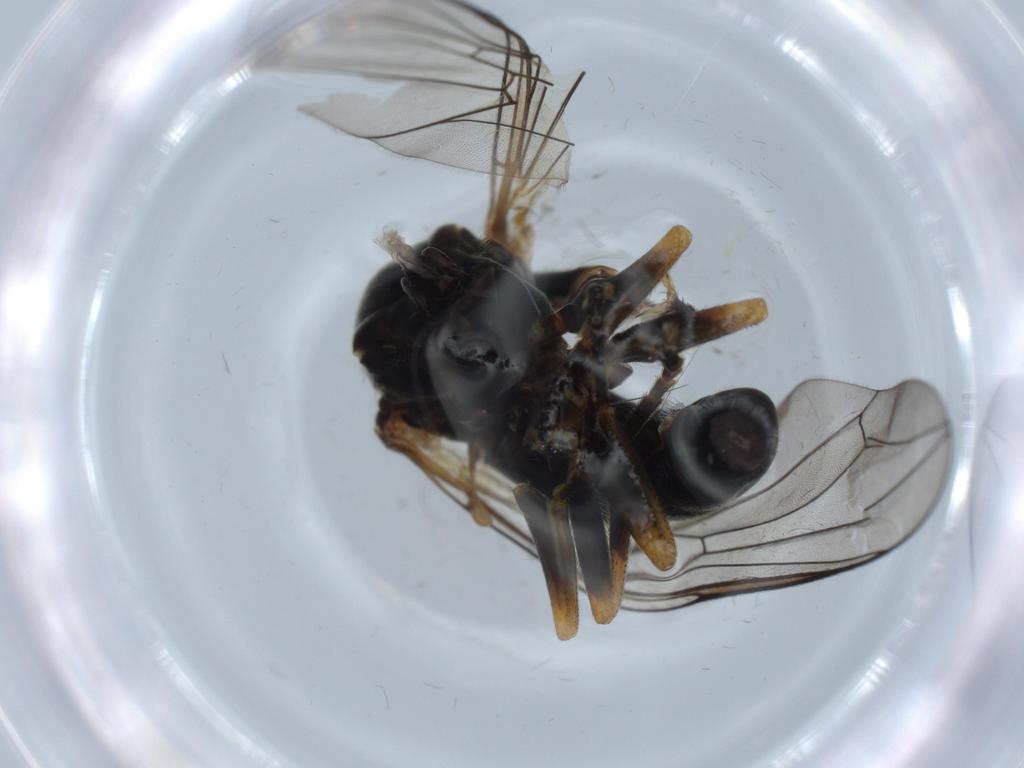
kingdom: Animalia
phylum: Arthropoda
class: Insecta
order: Diptera
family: Pipunculidae
